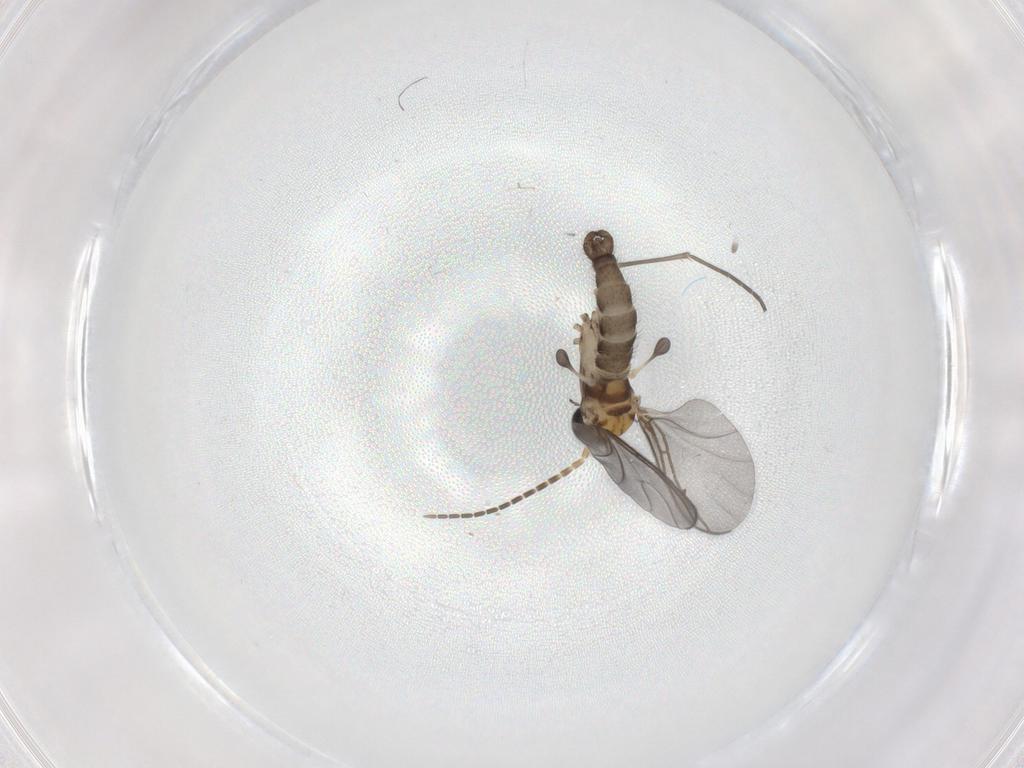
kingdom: Animalia
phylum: Arthropoda
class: Insecta
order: Diptera
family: Sciaridae
